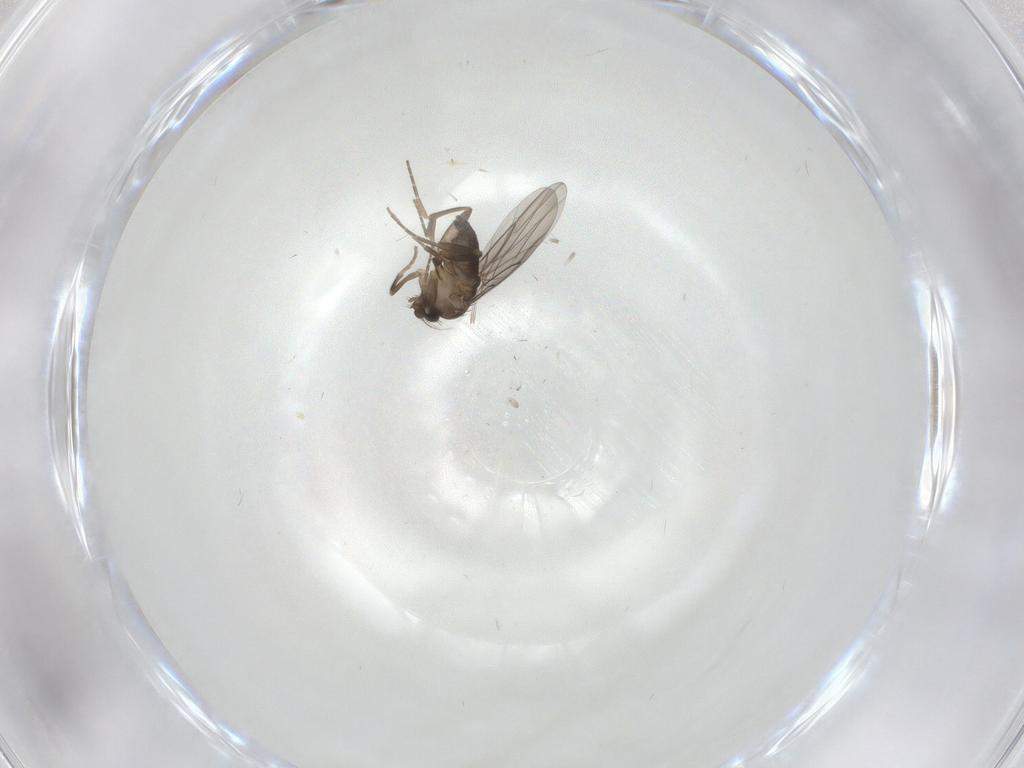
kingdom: Animalia
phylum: Arthropoda
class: Insecta
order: Diptera
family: Cecidomyiidae
